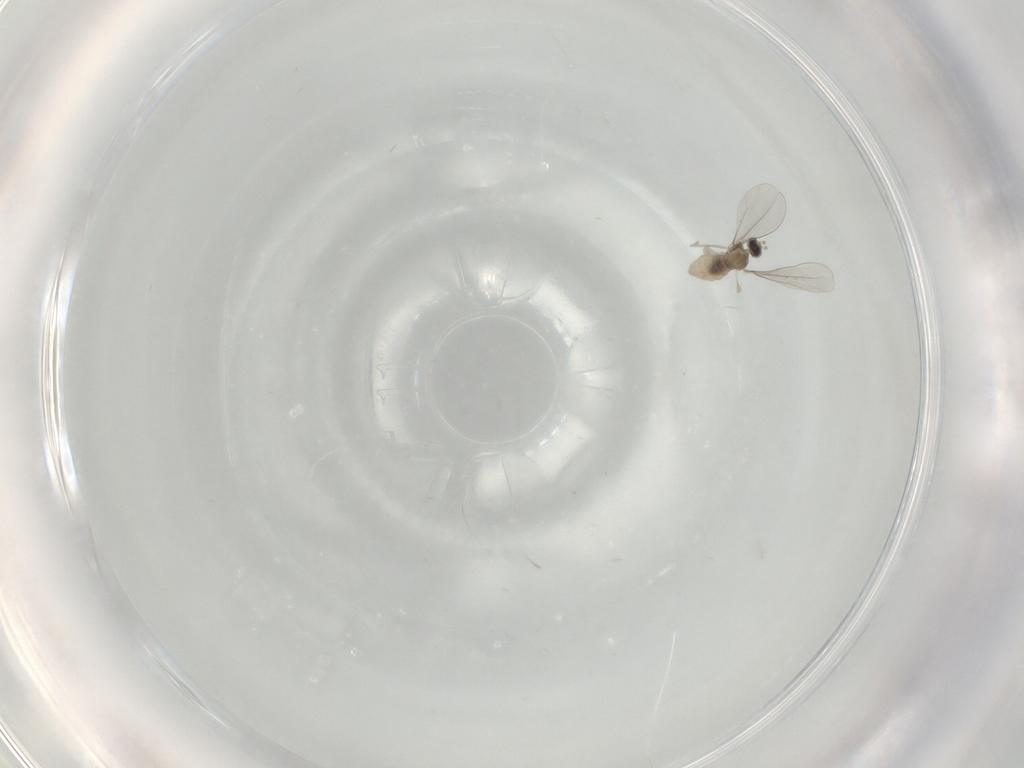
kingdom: Animalia
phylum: Arthropoda
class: Insecta
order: Diptera
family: Cecidomyiidae
